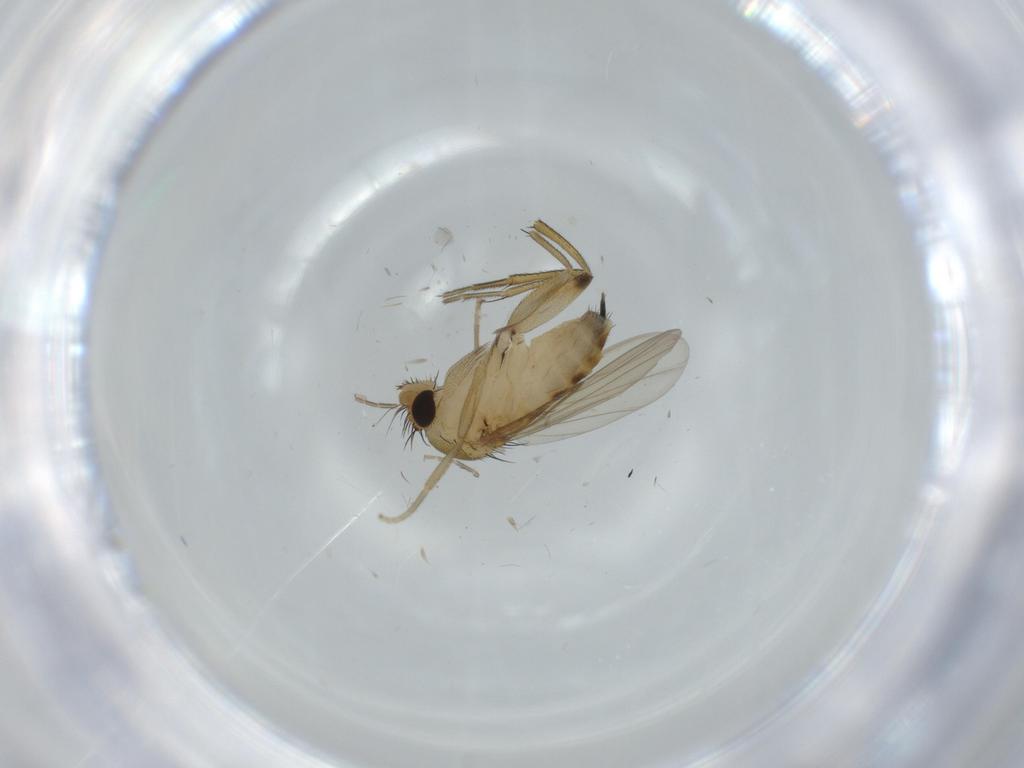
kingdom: Animalia
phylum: Arthropoda
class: Insecta
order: Diptera
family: Phoridae
